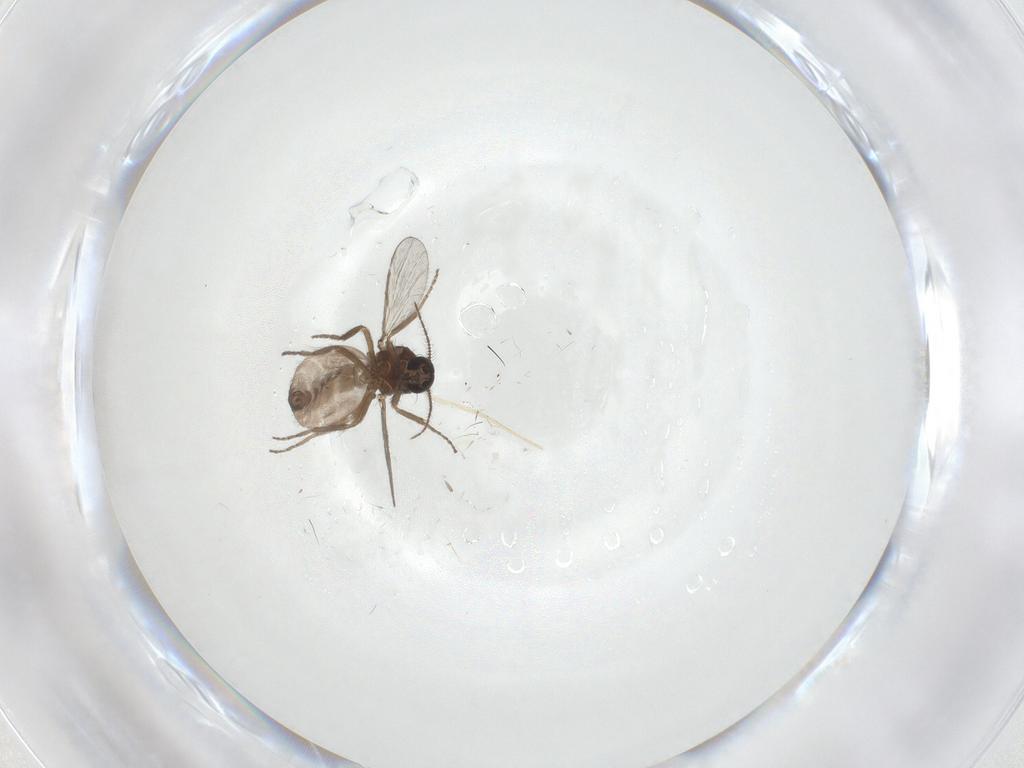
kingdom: Animalia
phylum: Arthropoda
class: Insecta
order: Diptera
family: Ceratopogonidae
